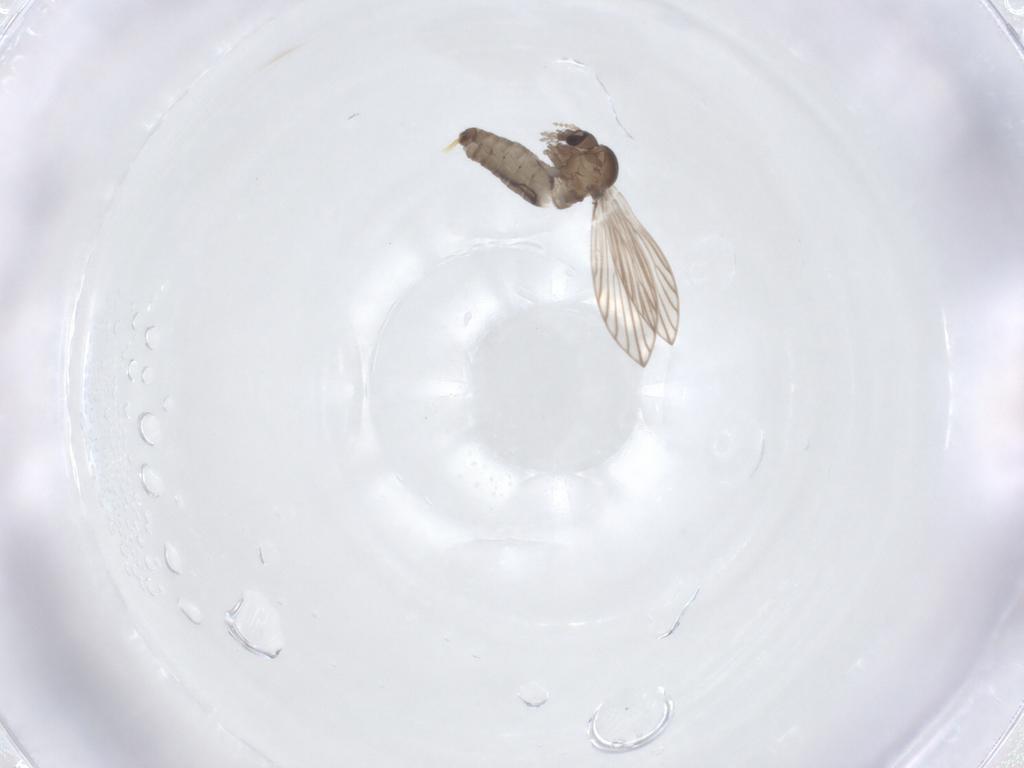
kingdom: Animalia
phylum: Arthropoda
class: Insecta
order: Diptera
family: Psychodidae
